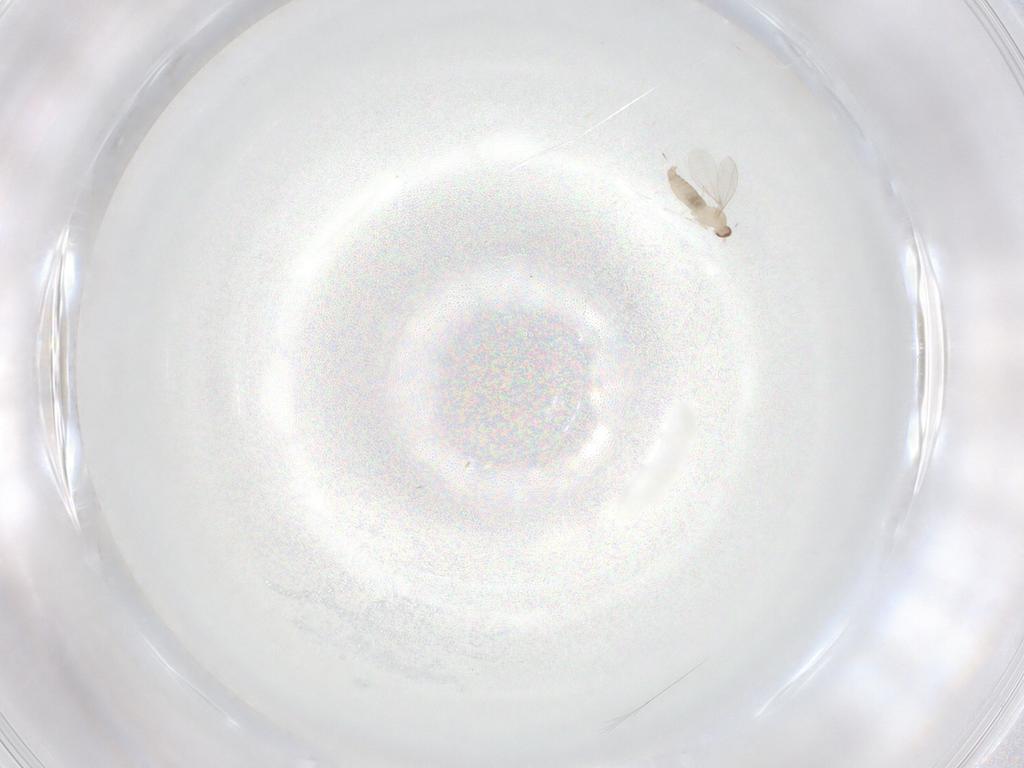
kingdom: Animalia
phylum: Arthropoda
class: Insecta
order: Diptera
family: Cecidomyiidae
